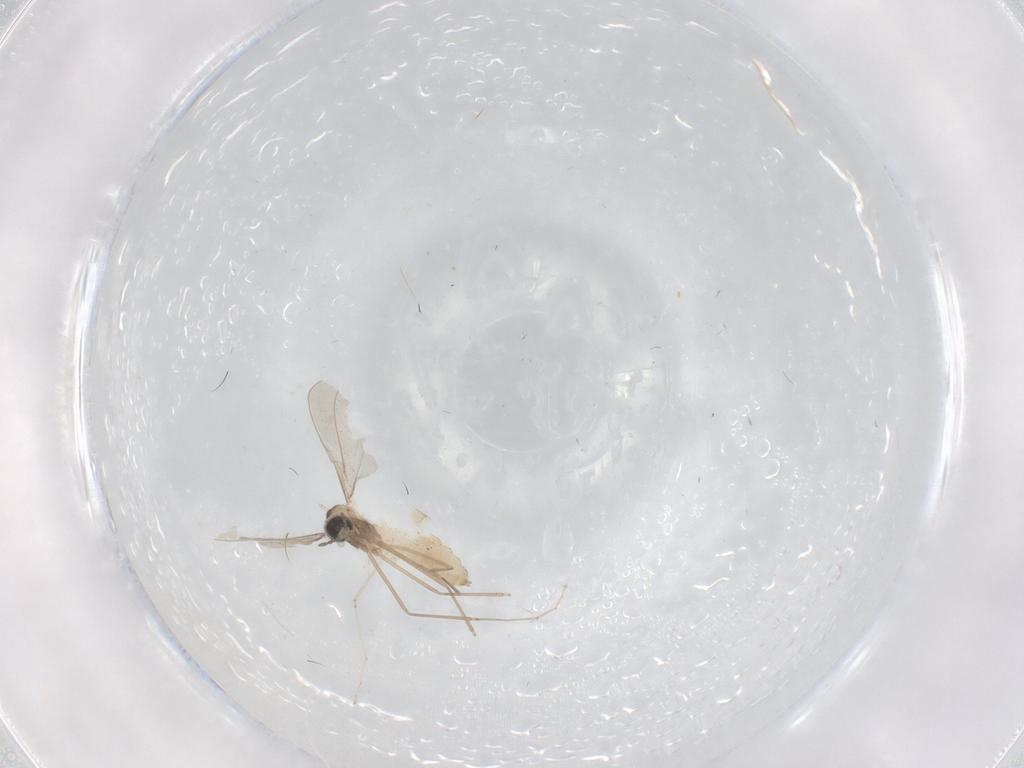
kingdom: Animalia
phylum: Arthropoda
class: Insecta
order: Diptera
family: Cecidomyiidae
